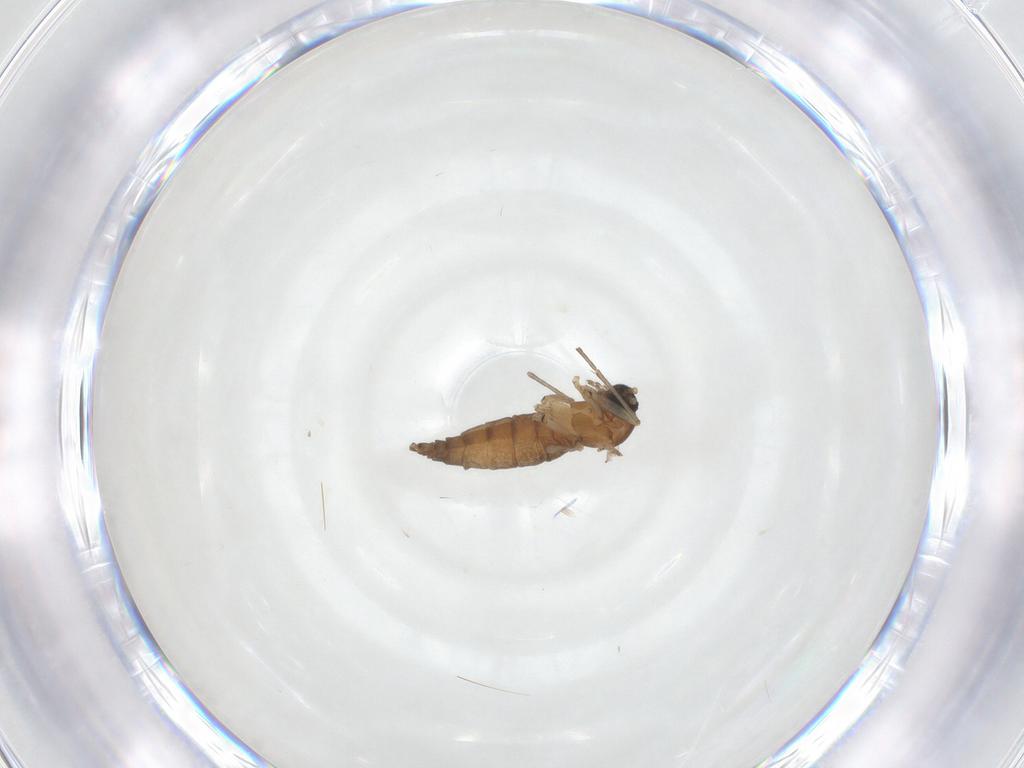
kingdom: Animalia
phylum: Arthropoda
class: Insecta
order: Diptera
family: Sciaridae
